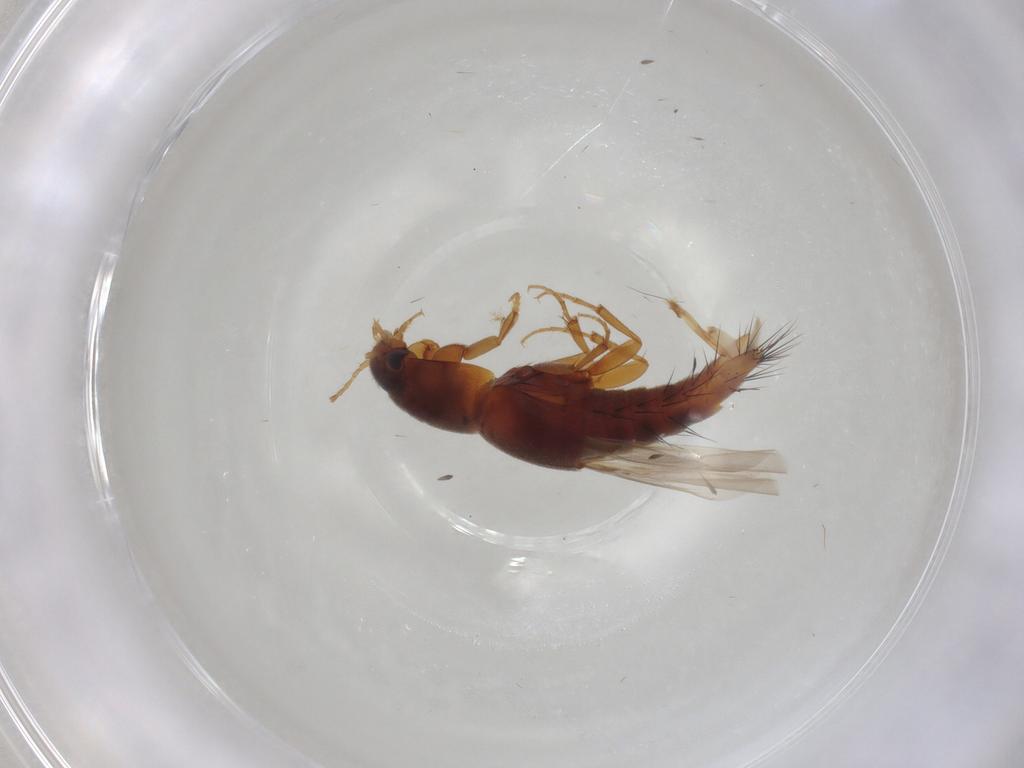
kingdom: Animalia
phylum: Arthropoda
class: Insecta
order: Coleoptera
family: Staphylinidae
